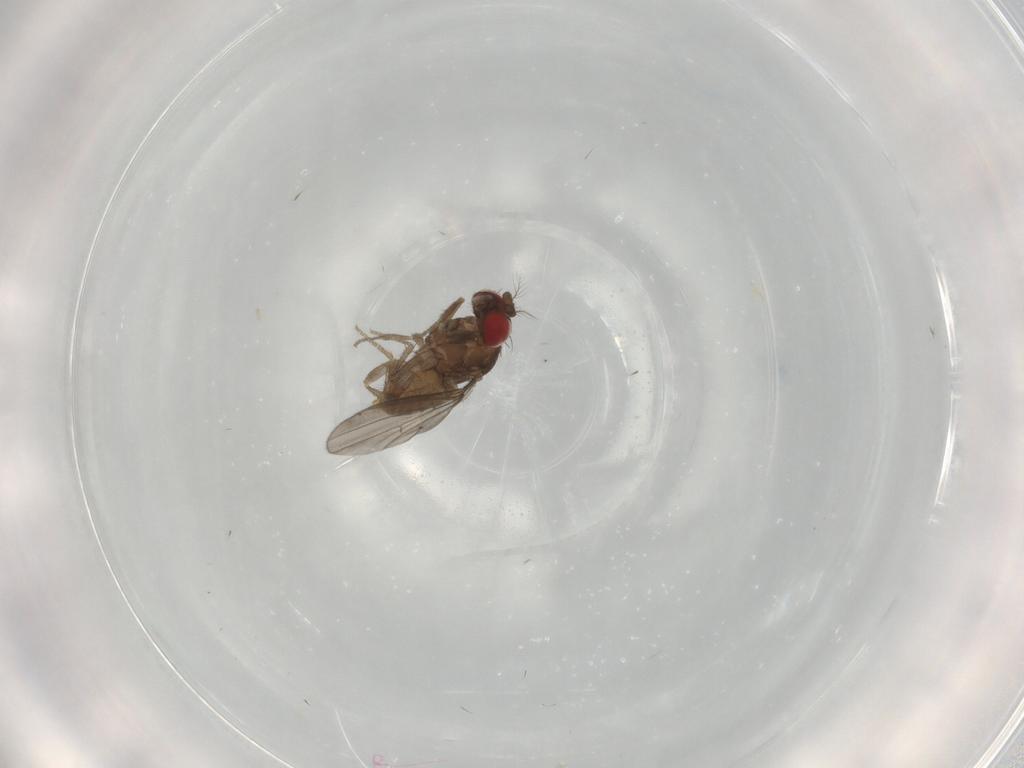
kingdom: Animalia
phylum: Arthropoda
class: Insecta
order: Diptera
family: Drosophilidae
